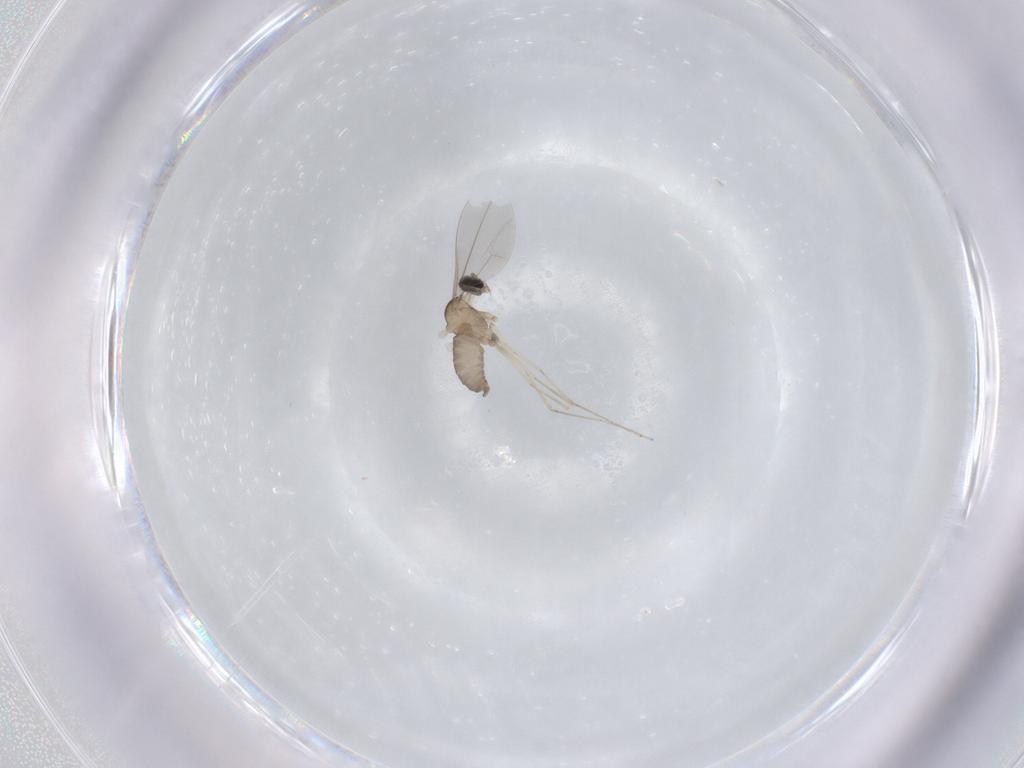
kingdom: Animalia
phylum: Arthropoda
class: Insecta
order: Diptera
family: Cecidomyiidae
